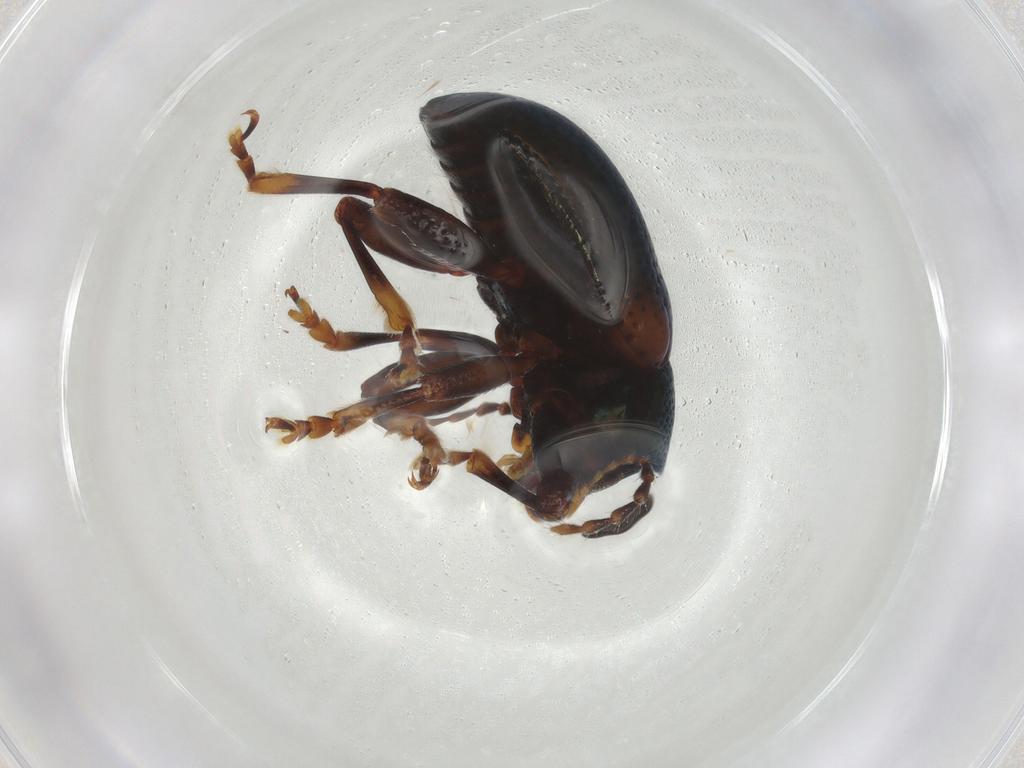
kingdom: Animalia
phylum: Arthropoda
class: Insecta
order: Coleoptera
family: Chrysomelidae
